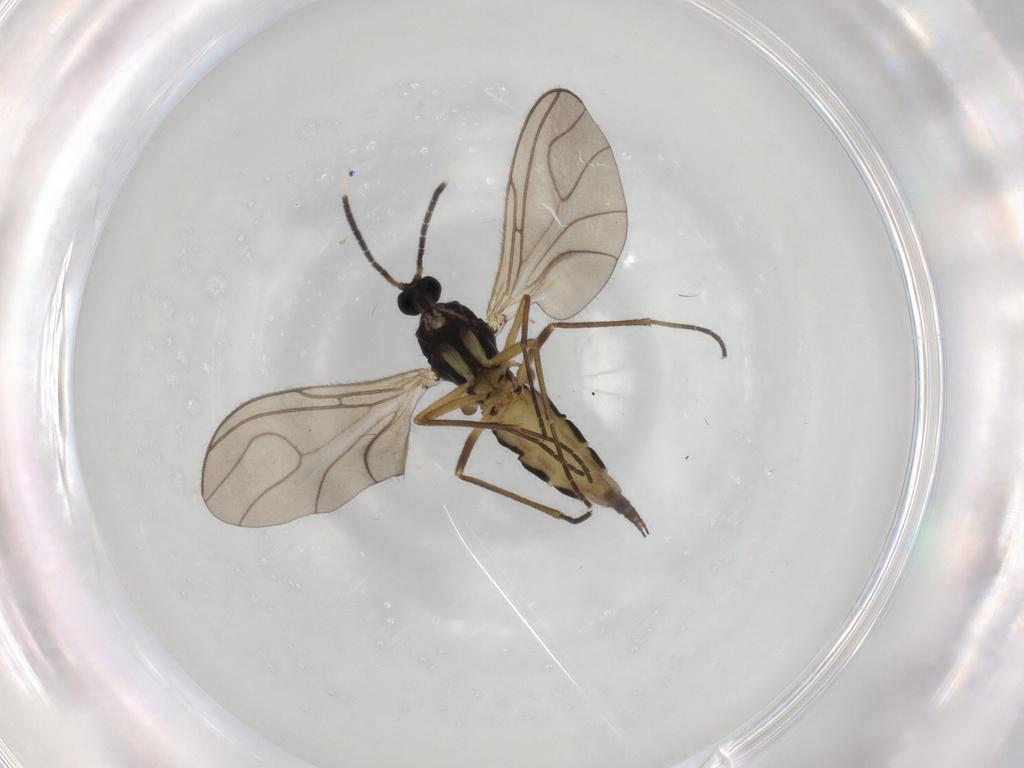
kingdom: Animalia
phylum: Arthropoda
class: Insecta
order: Diptera
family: Sciaridae
